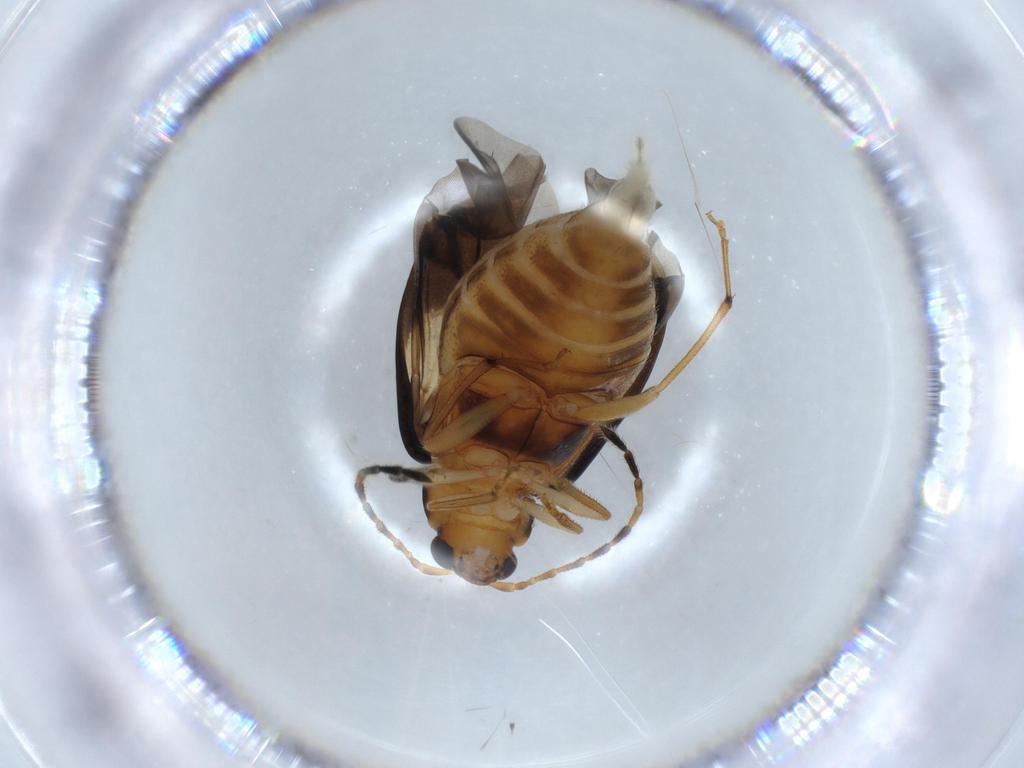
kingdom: Animalia
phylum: Arthropoda
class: Insecta
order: Coleoptera
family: Chrysomelidae
